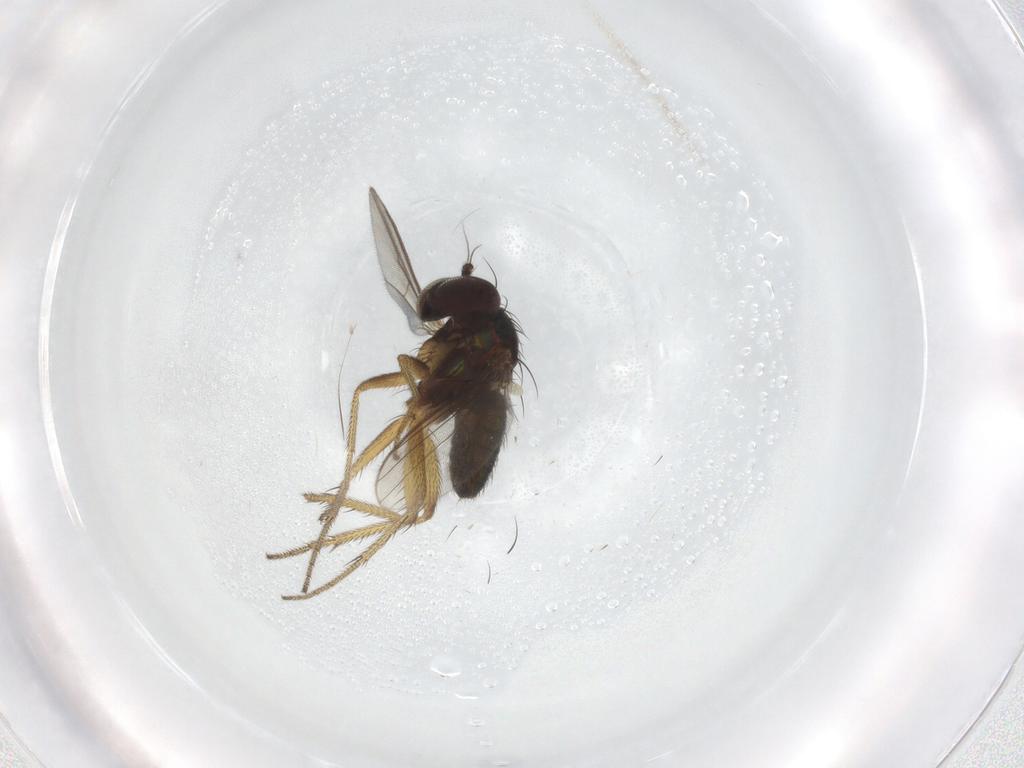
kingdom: Animalia
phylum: Arthropoda
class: Insecta
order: Diptera
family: Dolichopodidae
